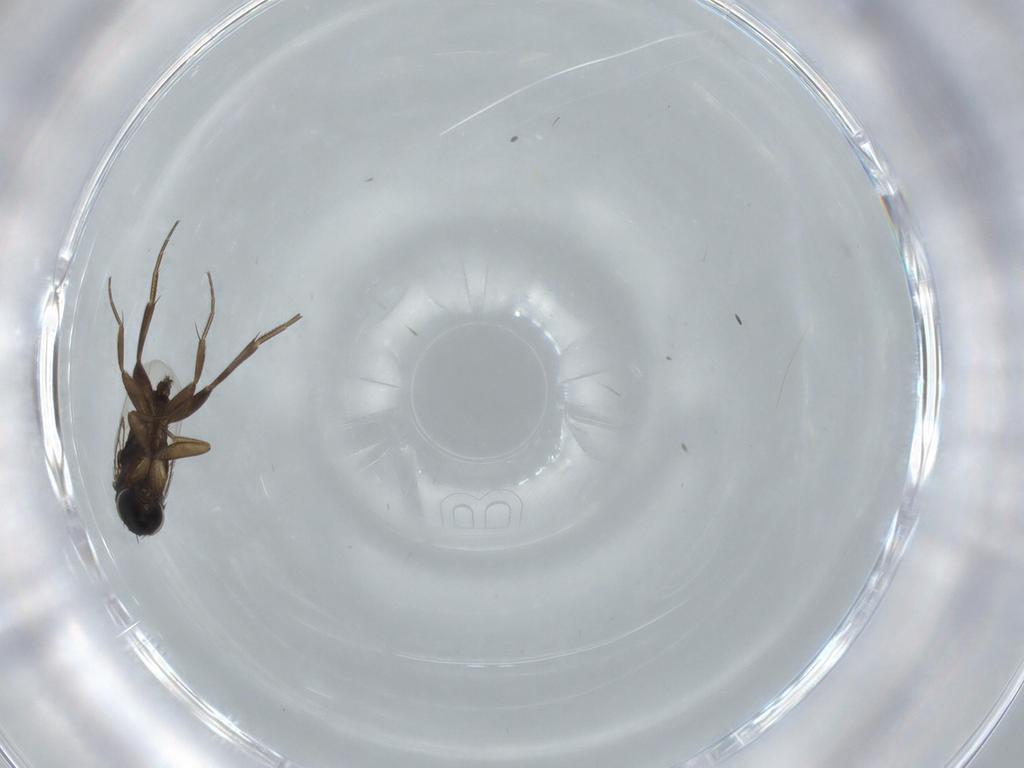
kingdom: Animalia
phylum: Arthropoda
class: Insecta
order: Diptera
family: Phoridae
